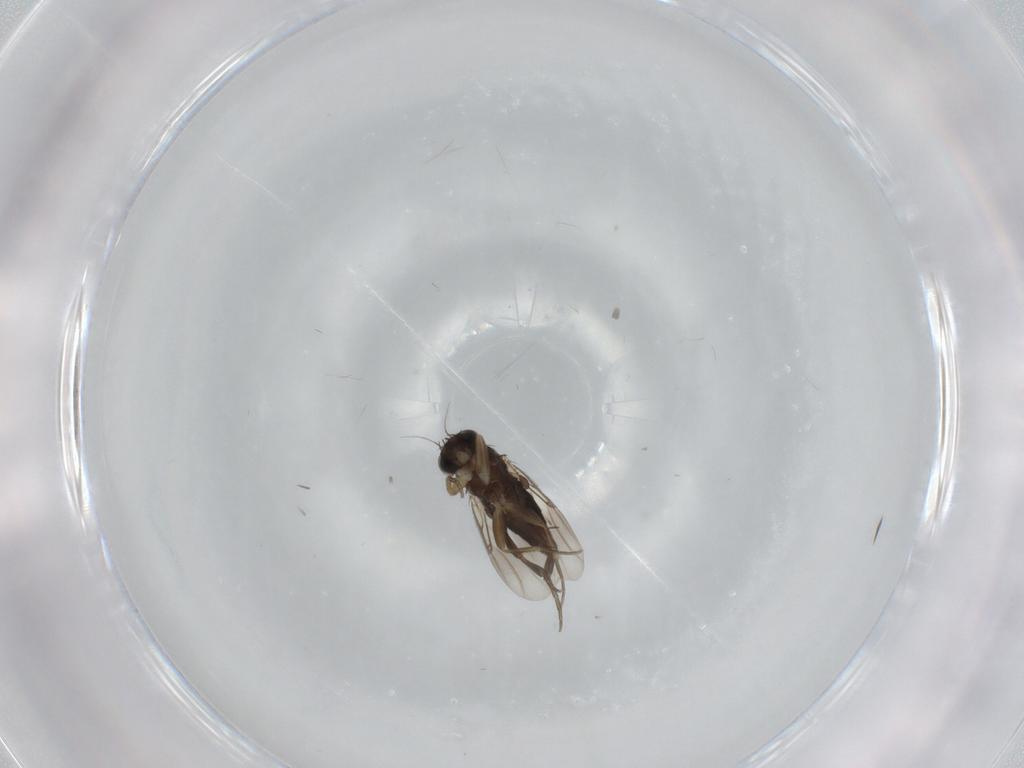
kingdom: Animalia
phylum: Arthropoda
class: Insecta
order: Diptera
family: Phoridae
